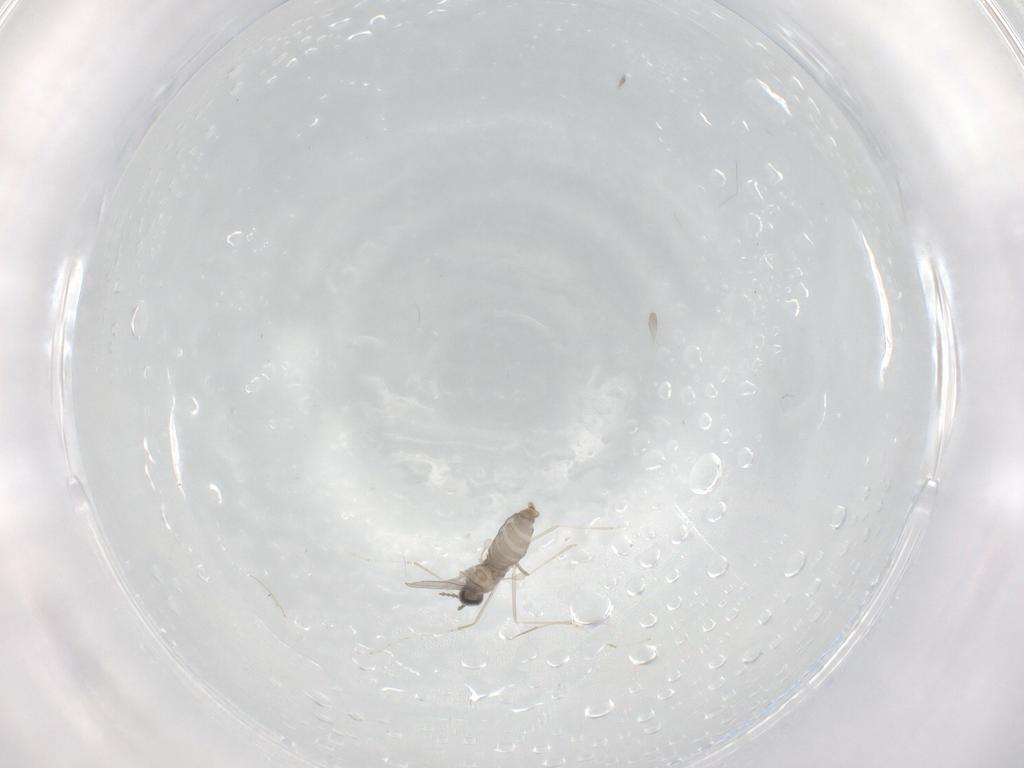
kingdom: Animalia
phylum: Arthropoda
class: Insecta
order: Diptera
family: Cecidomyiidae
